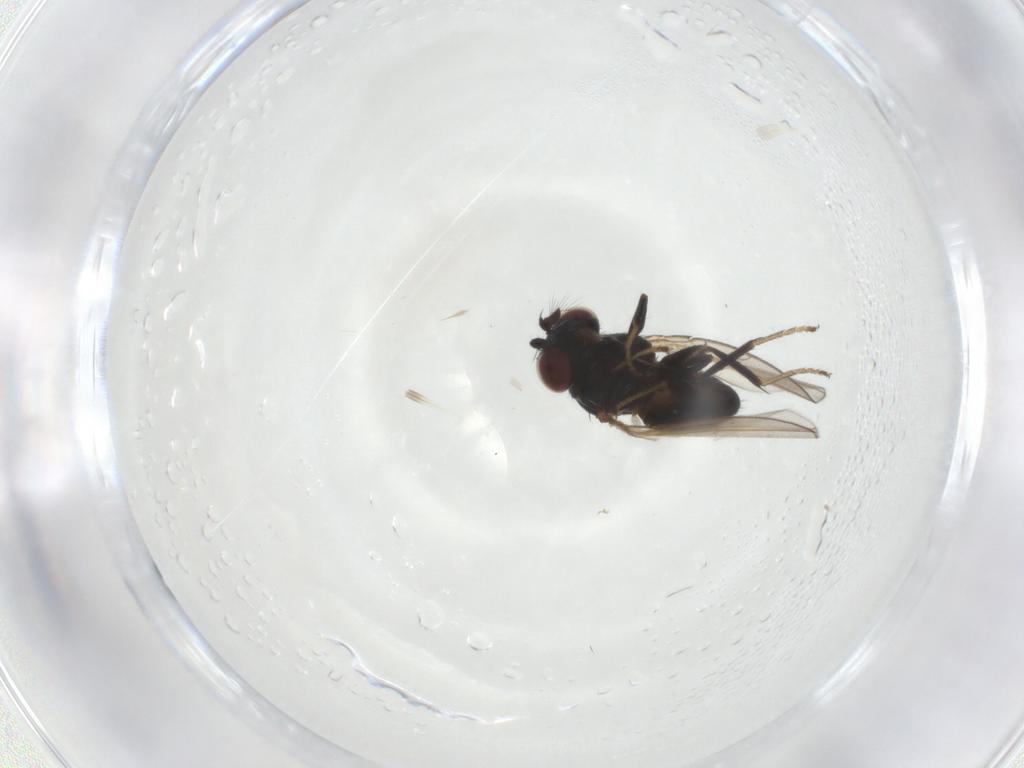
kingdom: Animalia
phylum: Arthropoda
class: Insecta
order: Diptera
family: Ephydridae
